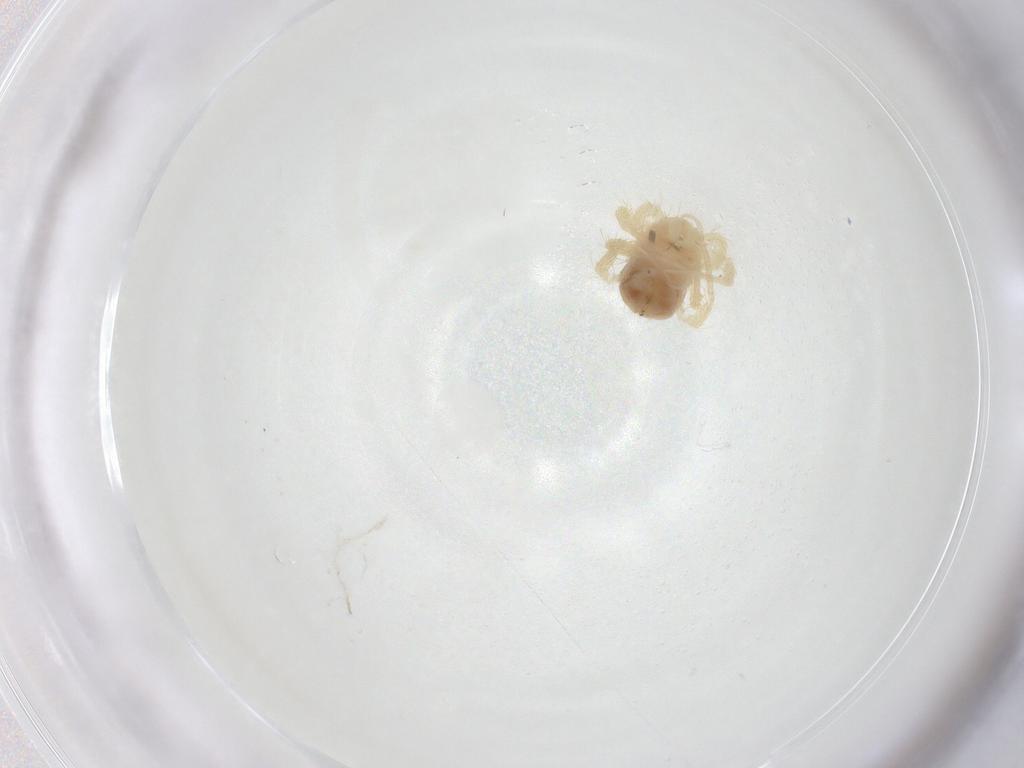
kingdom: Animalia
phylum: Arthropoda
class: Arachnida
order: Trombidiformes
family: Anystidae
